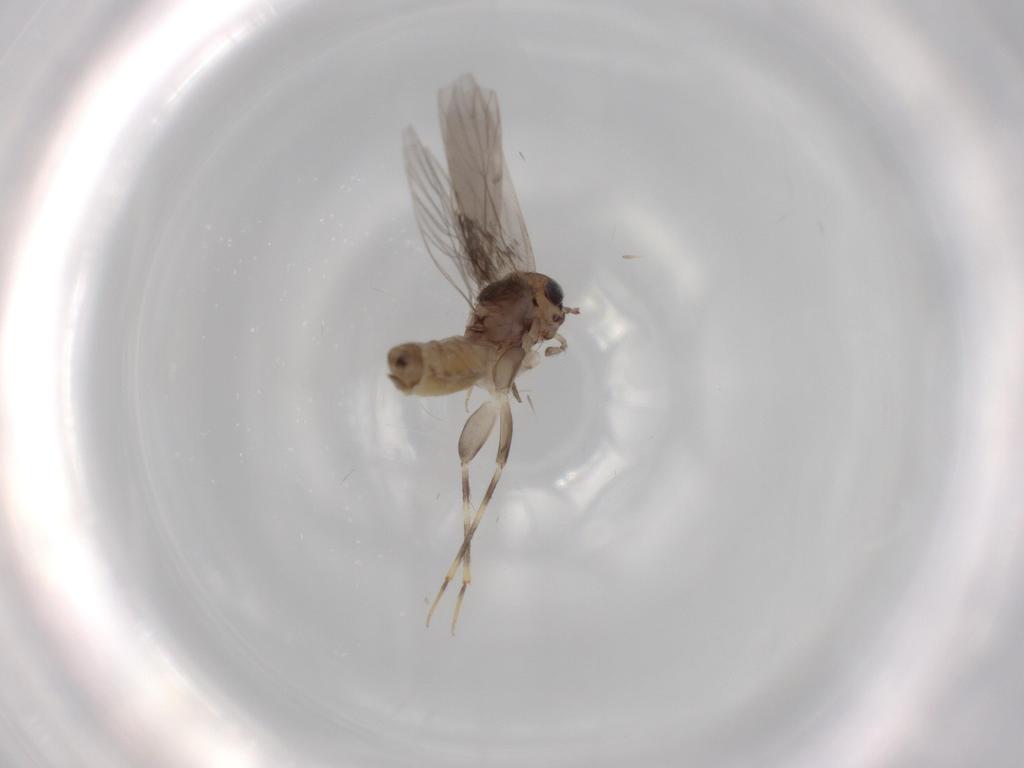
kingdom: Animalia
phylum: Arthropoda
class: Insecta
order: Psocodea
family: Lepidopsocidae
